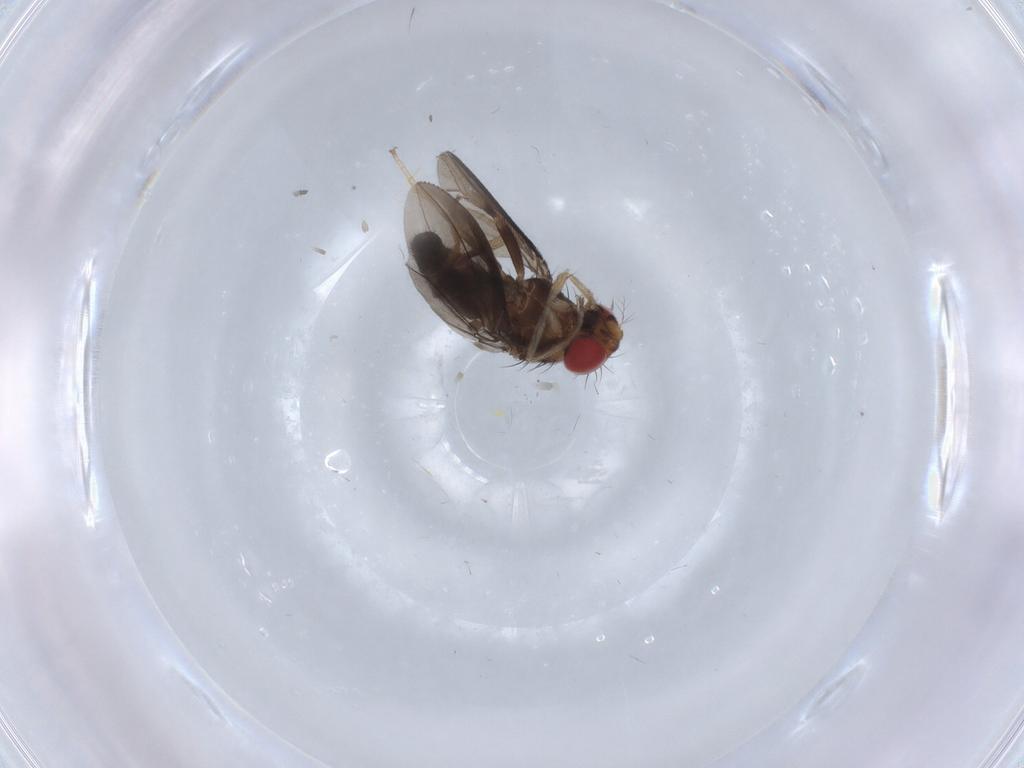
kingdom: Animalia
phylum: Arthropoda
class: Insecta
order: Diptera
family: Drosophilidae
